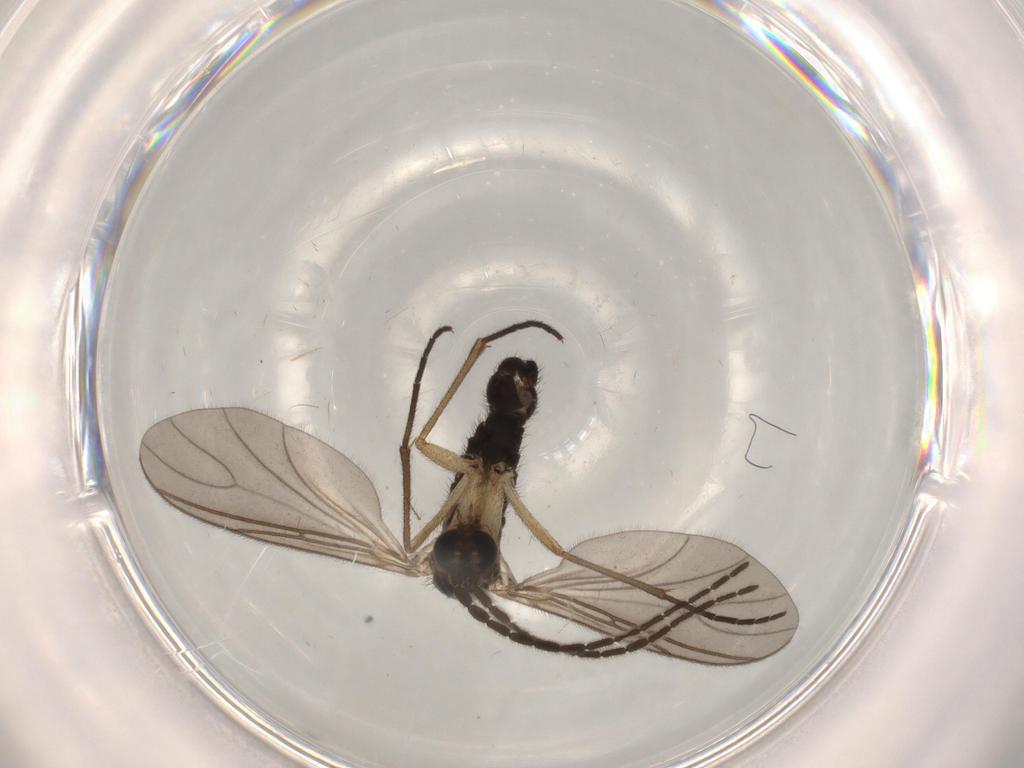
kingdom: Animalia
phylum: Arthropoda
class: Insecta
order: Diptera
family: Sciaridae
